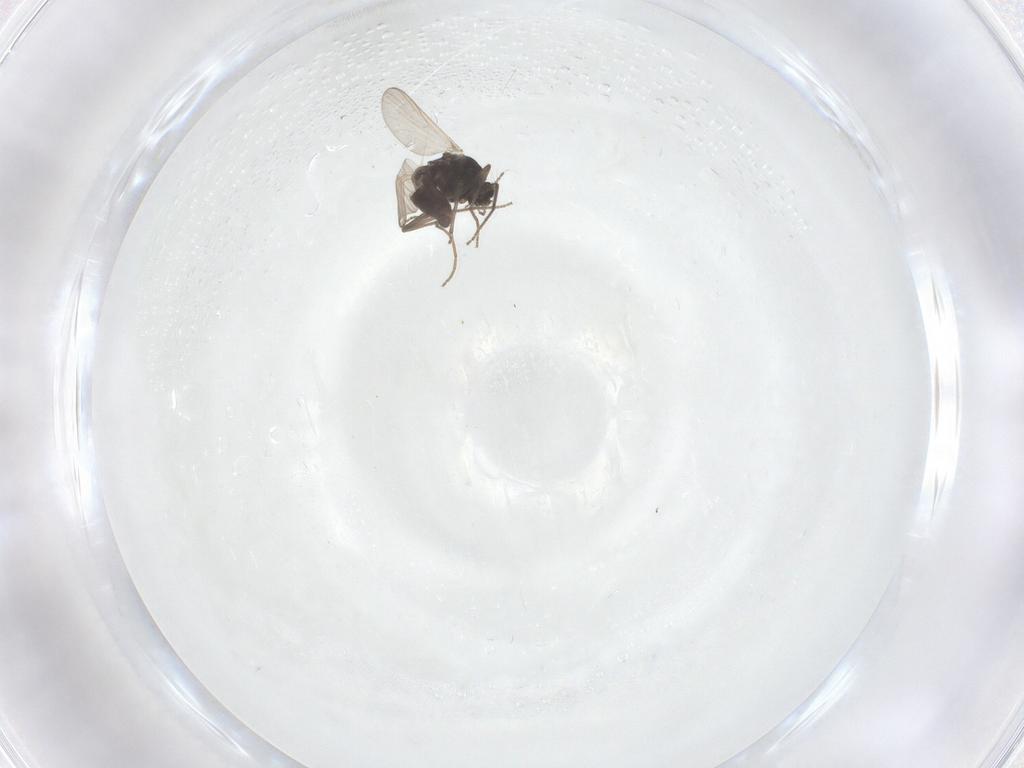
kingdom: Animalia
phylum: Arthropoda
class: Insecta
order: Diptera
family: Chironomidae
